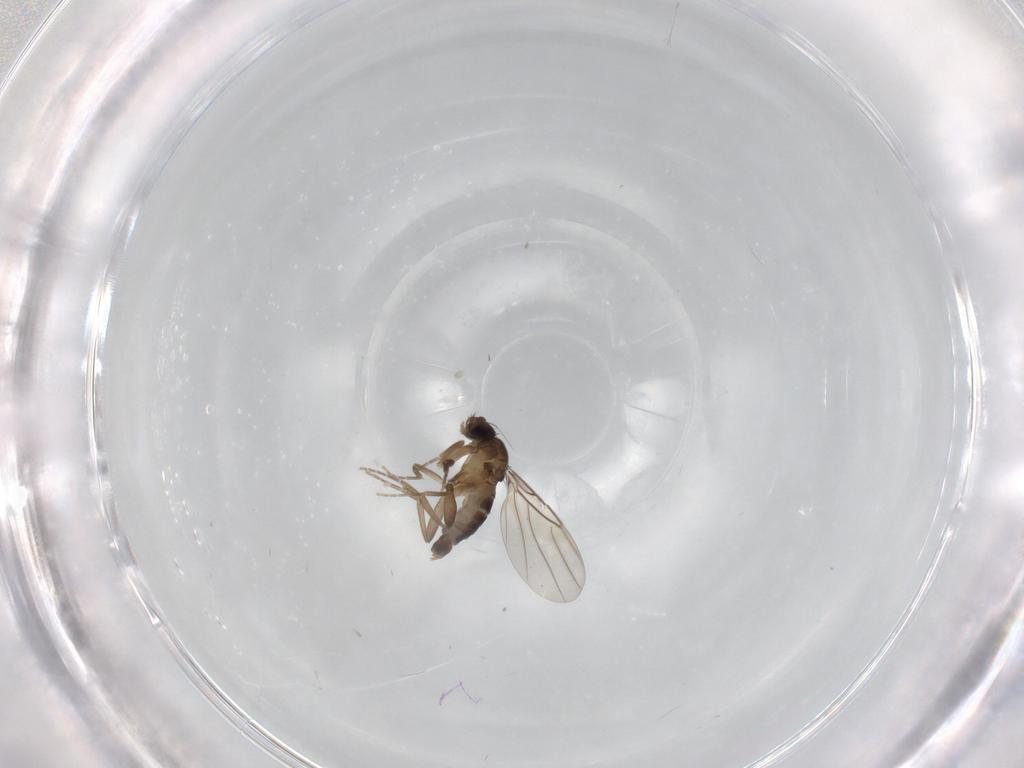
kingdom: Animalia
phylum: Arthropoda
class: Insecta
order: Diptera
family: Phoridae
